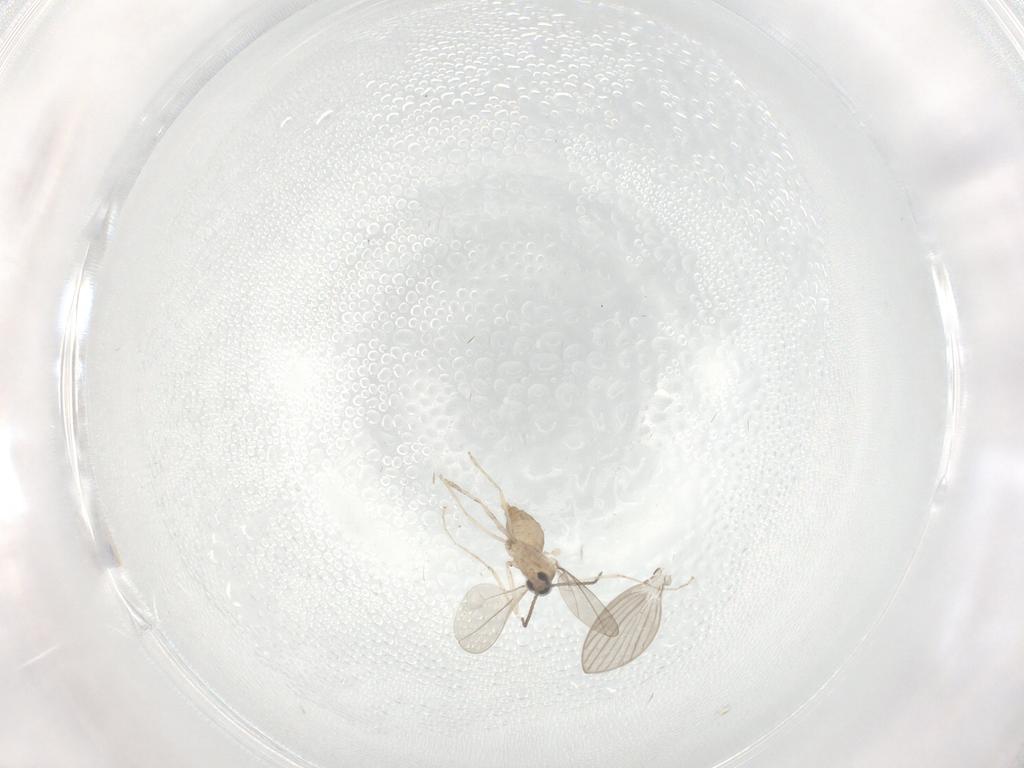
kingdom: Animalia
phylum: Arthropoda
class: Insecta
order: Diptera
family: Cecidomyiidae
